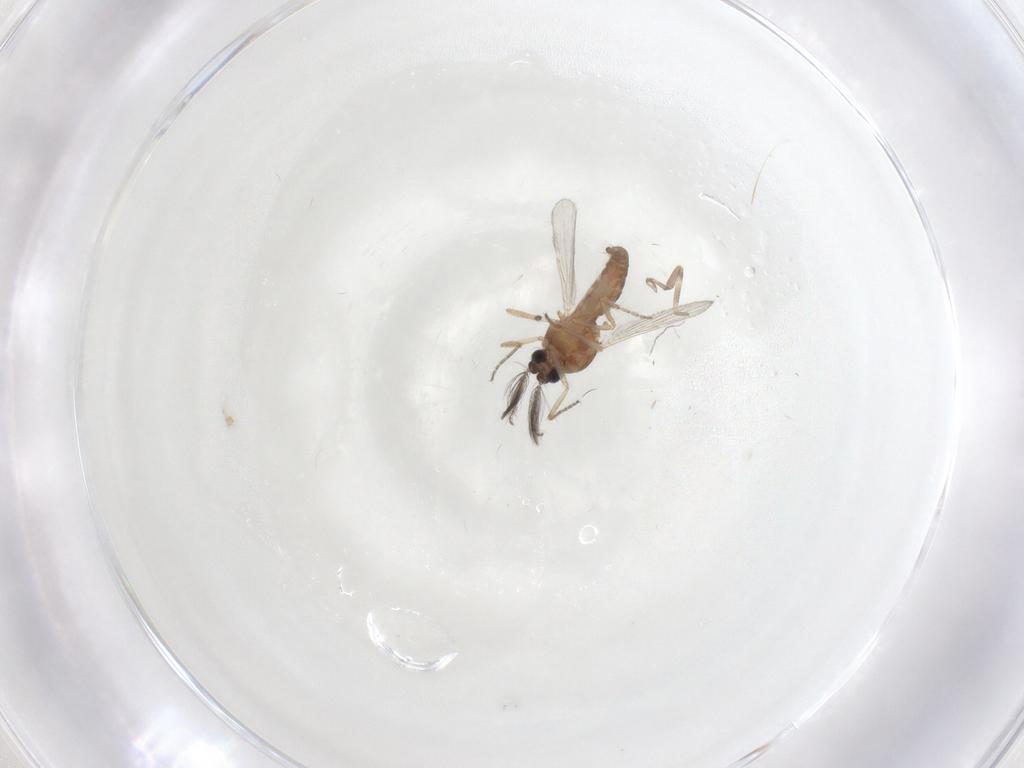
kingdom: Animalia
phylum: Arthropoda
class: Insecta
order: Diptera
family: Ceratopogonidae
